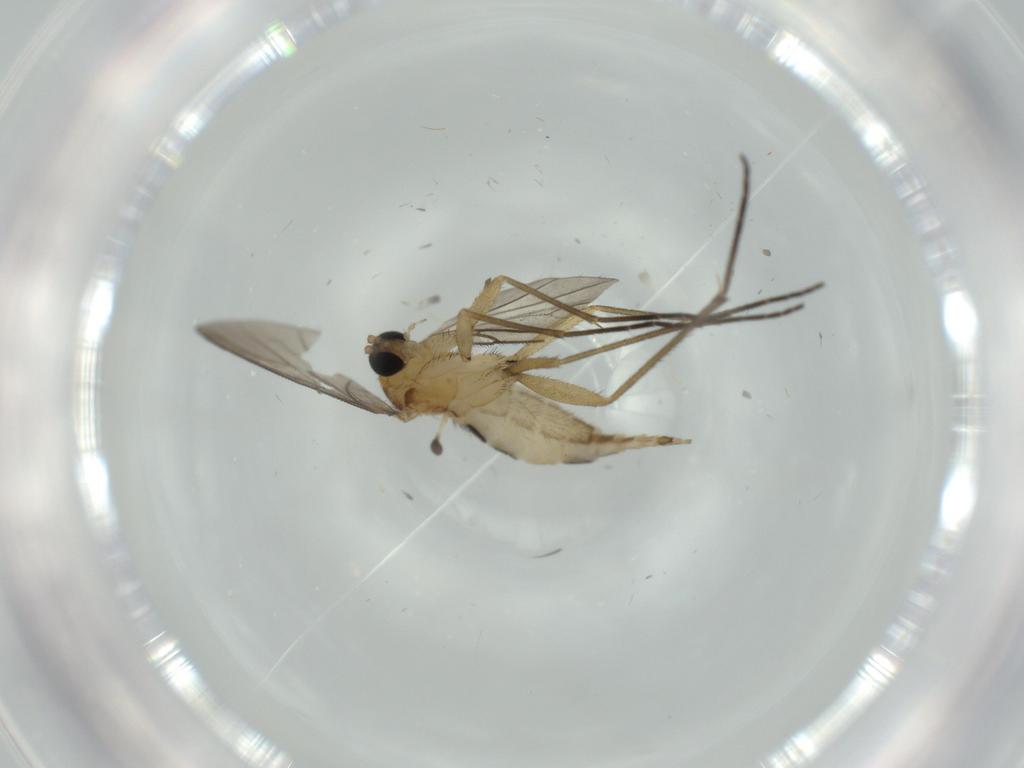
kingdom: Animalia
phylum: Arthropoda
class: Insecta
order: Diptera
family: Sciaridae
